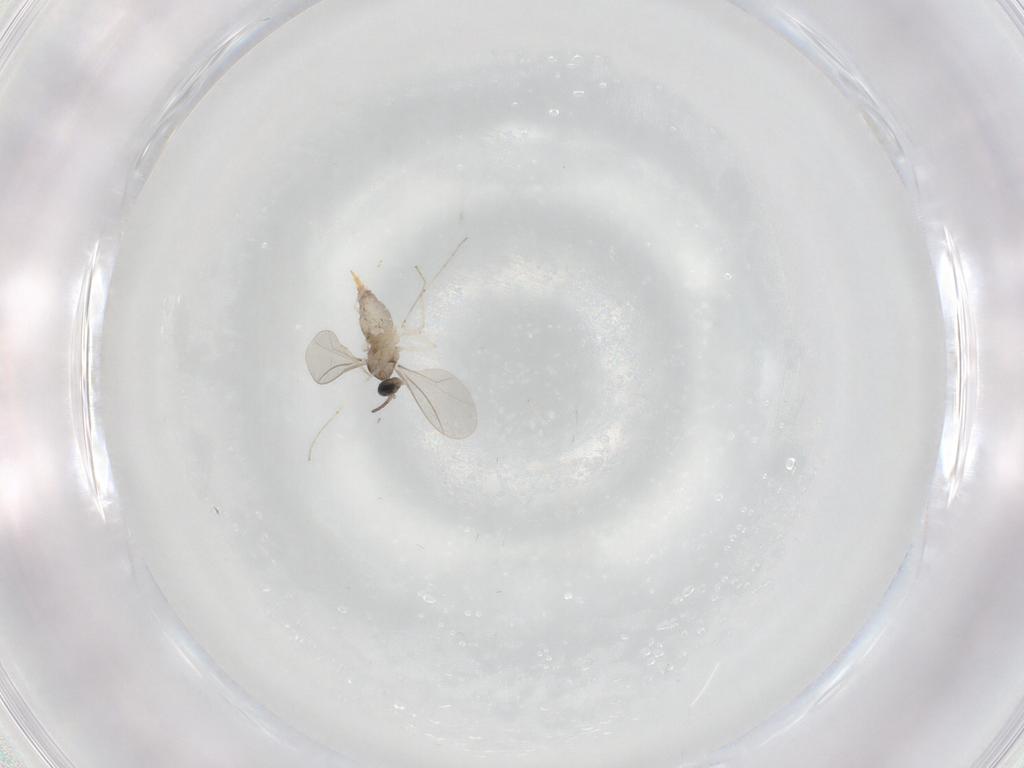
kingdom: Animalia
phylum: Arthropoda
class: Insecta
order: Diptera
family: Cecidomyiidae
